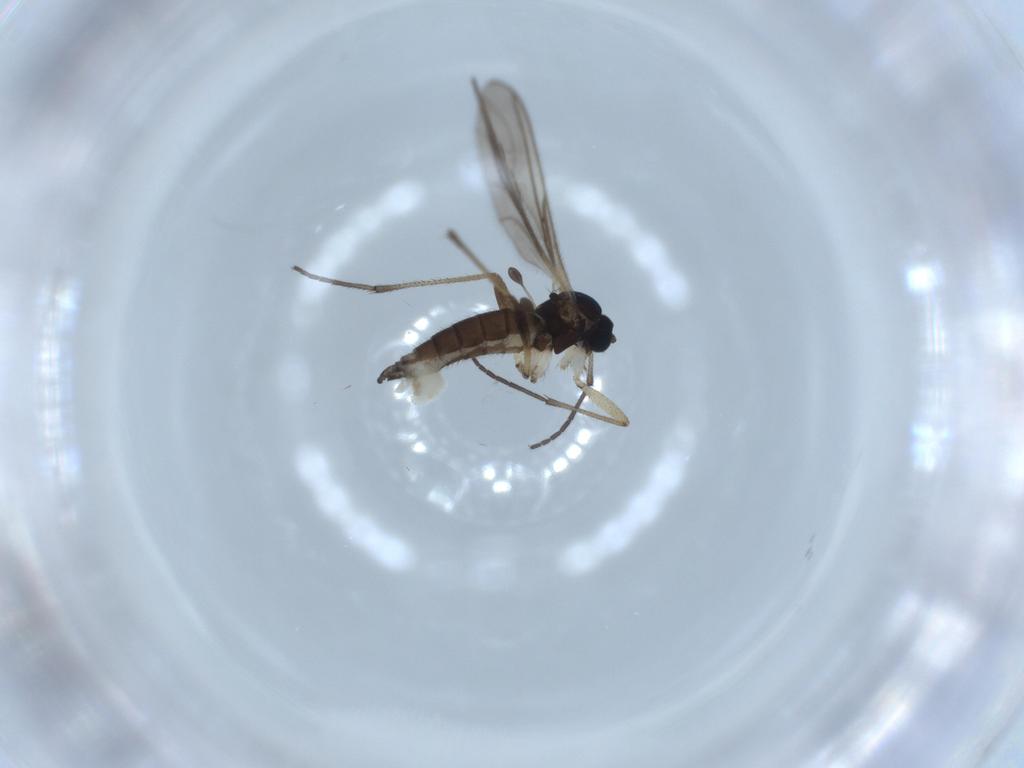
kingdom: Animalia
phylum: Arthropoda
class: Insecta
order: Diptera
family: Sciaridae
